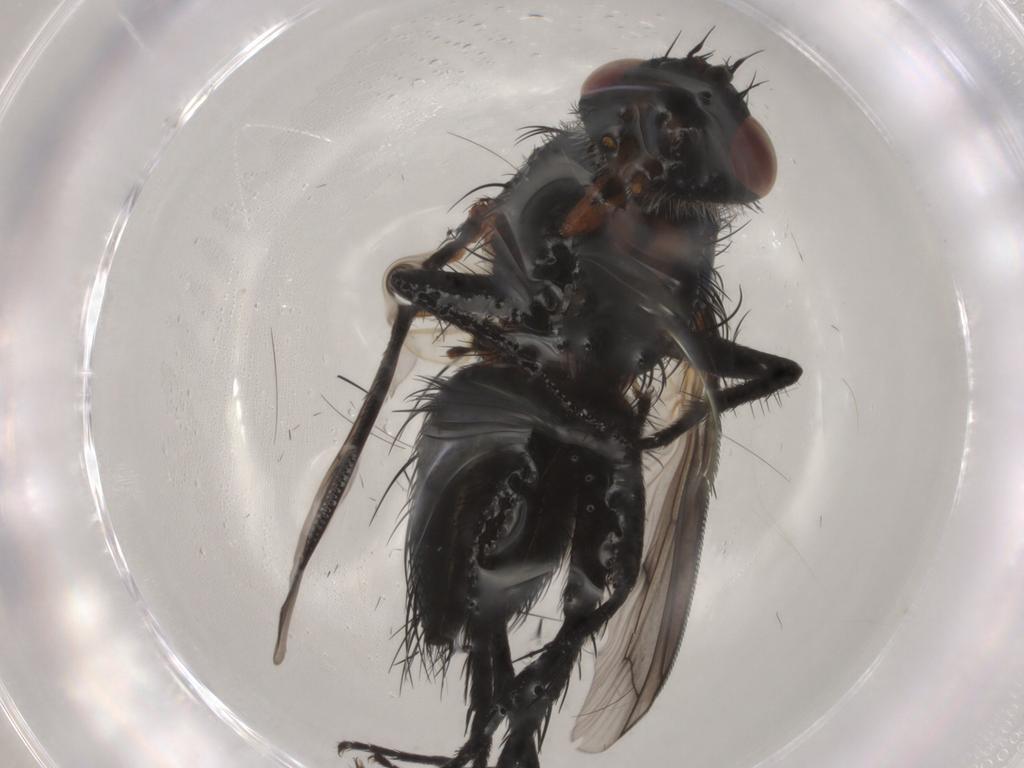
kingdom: Animalia
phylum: Arthropoda
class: Insecta
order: Diptera
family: Tachinidae
